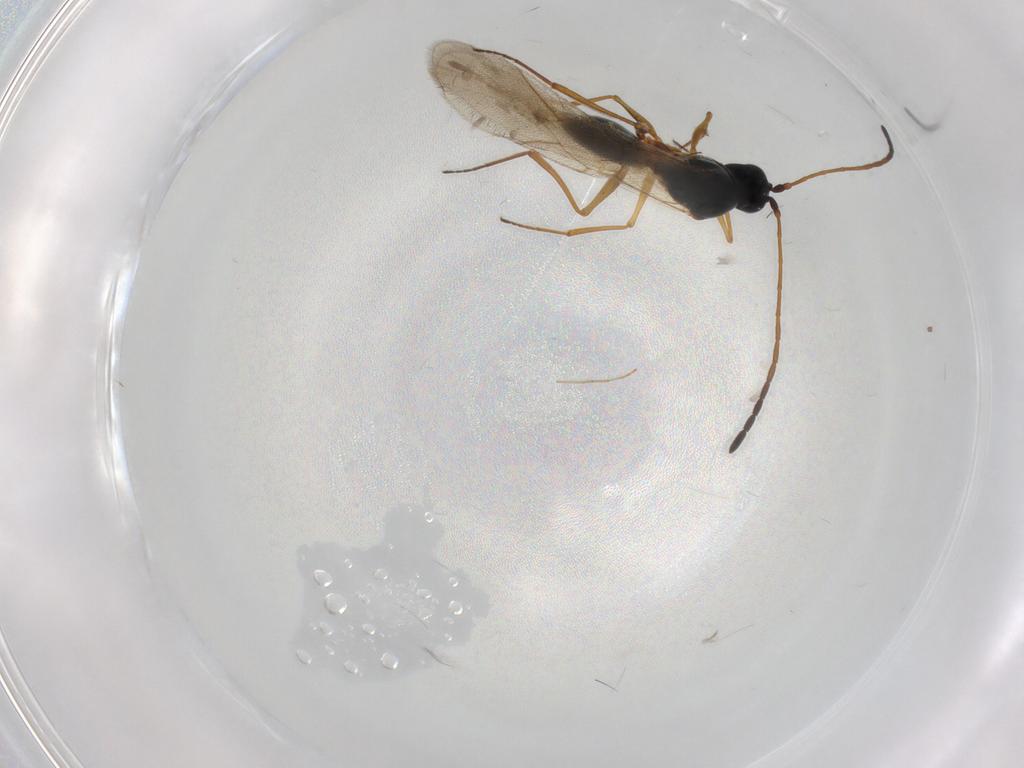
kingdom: Animalia
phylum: Arthropoda
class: Insecta
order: Hymenoptera
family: Figitidae
